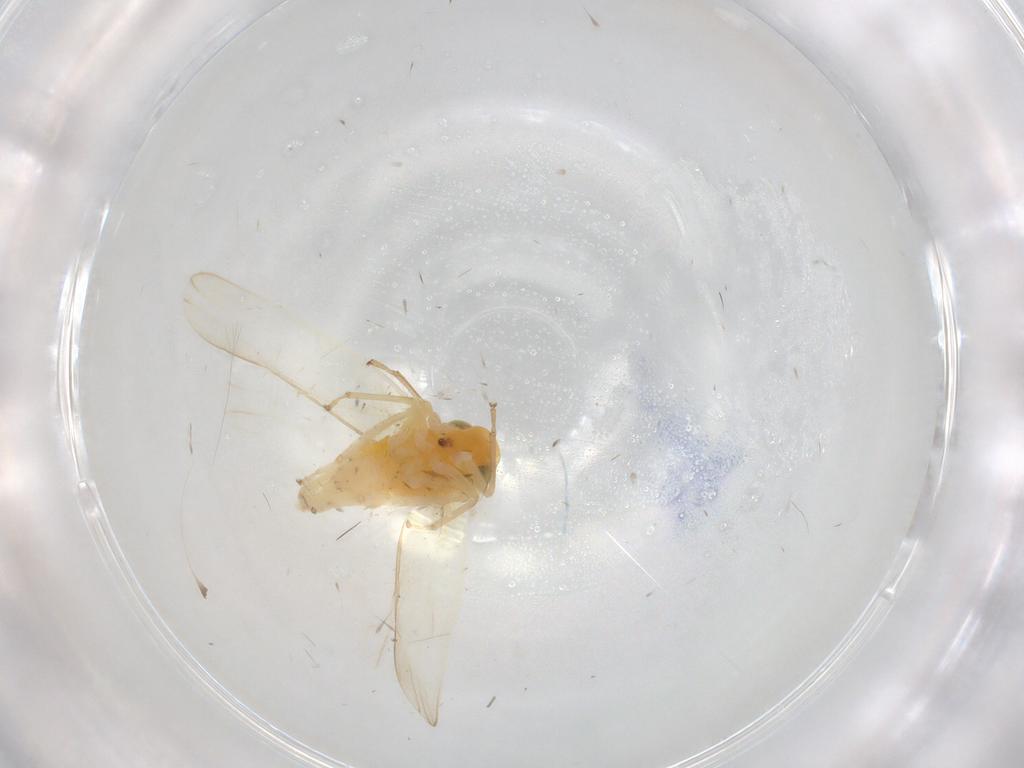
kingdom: Animalia
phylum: Arthropoda
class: Insecta
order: Hemiptera
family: Cicadellidae
